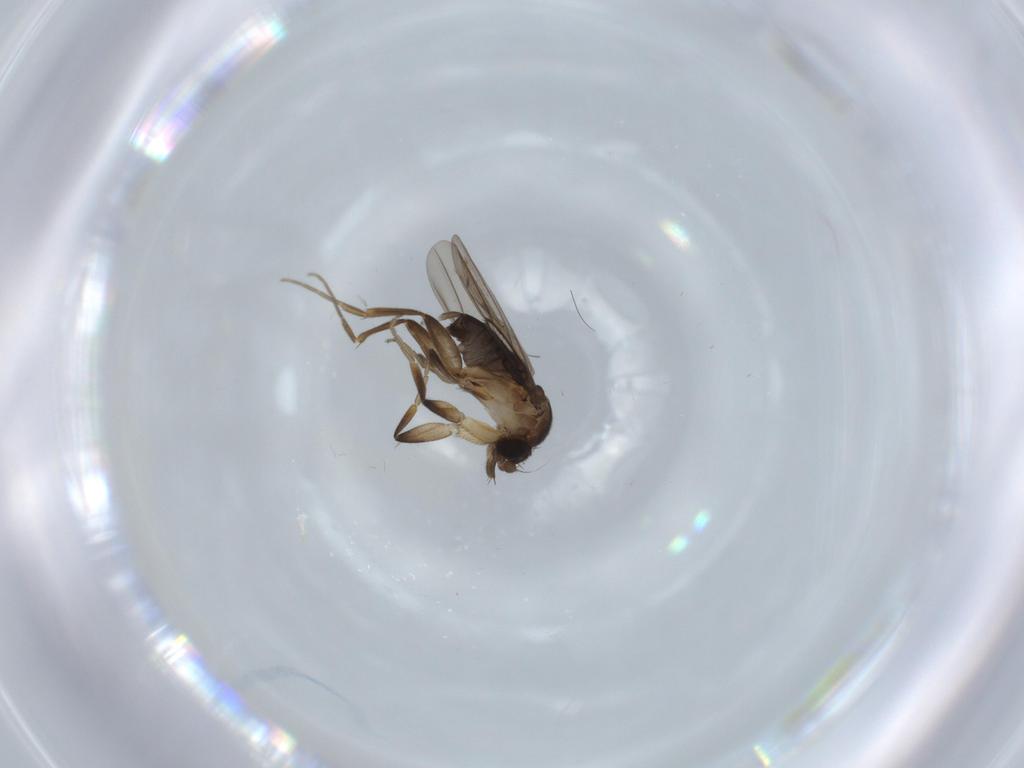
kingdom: Animalia
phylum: Arthropoda
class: Insecta
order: Diptera
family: Phoridae
